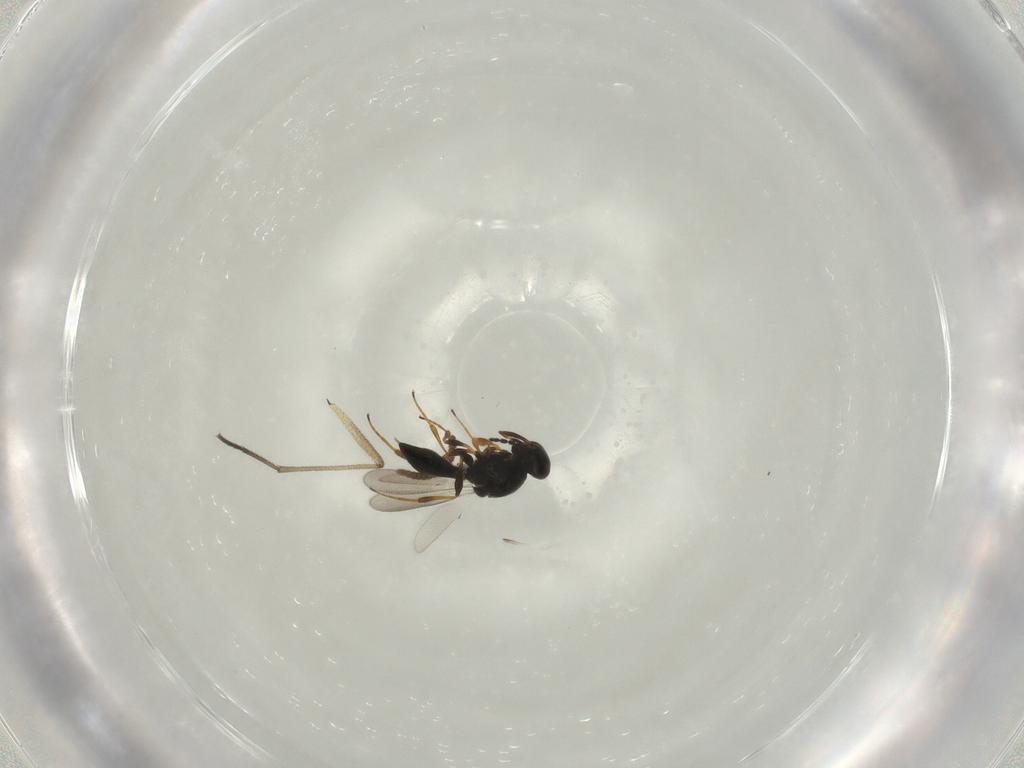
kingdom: Animalia
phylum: Arthropoda
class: Insecta
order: Hymenoptera
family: Platygastridae
